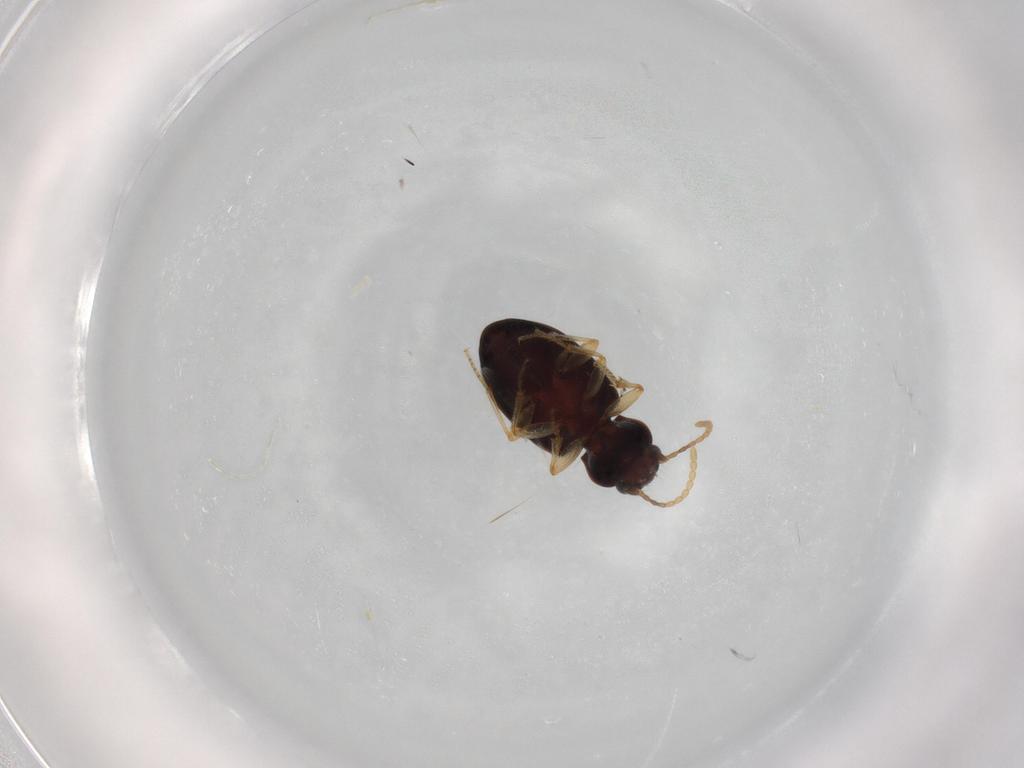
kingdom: Animalia
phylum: Arthropoda
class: Insecta
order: Coleoptera
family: Carabidae
